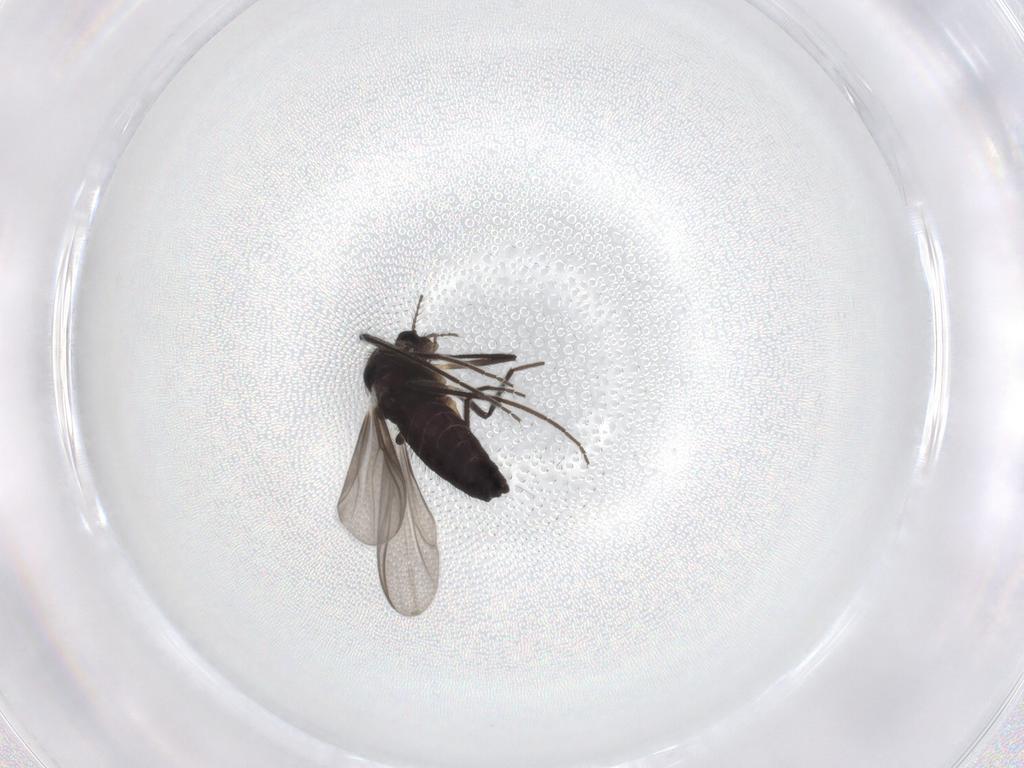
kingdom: Animalia
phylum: Arthropoda
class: Insecta
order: Diptera
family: Chironomidae
